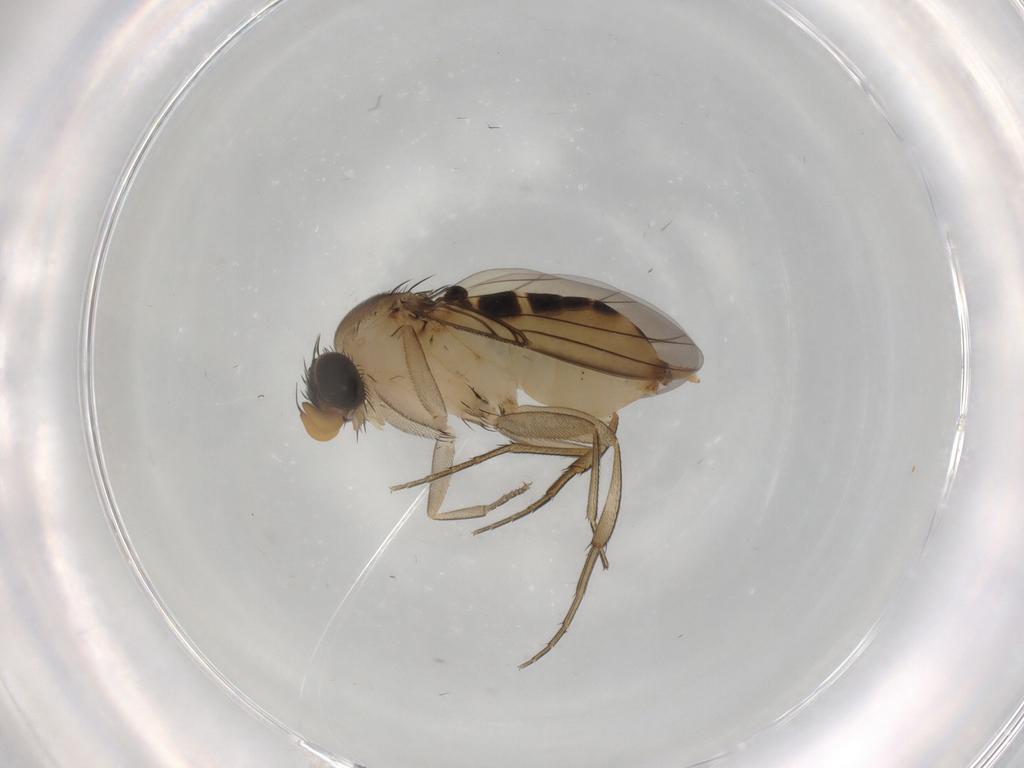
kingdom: Animalia
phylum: Arthropoda
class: Insecta
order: Diptera
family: Phoridae
